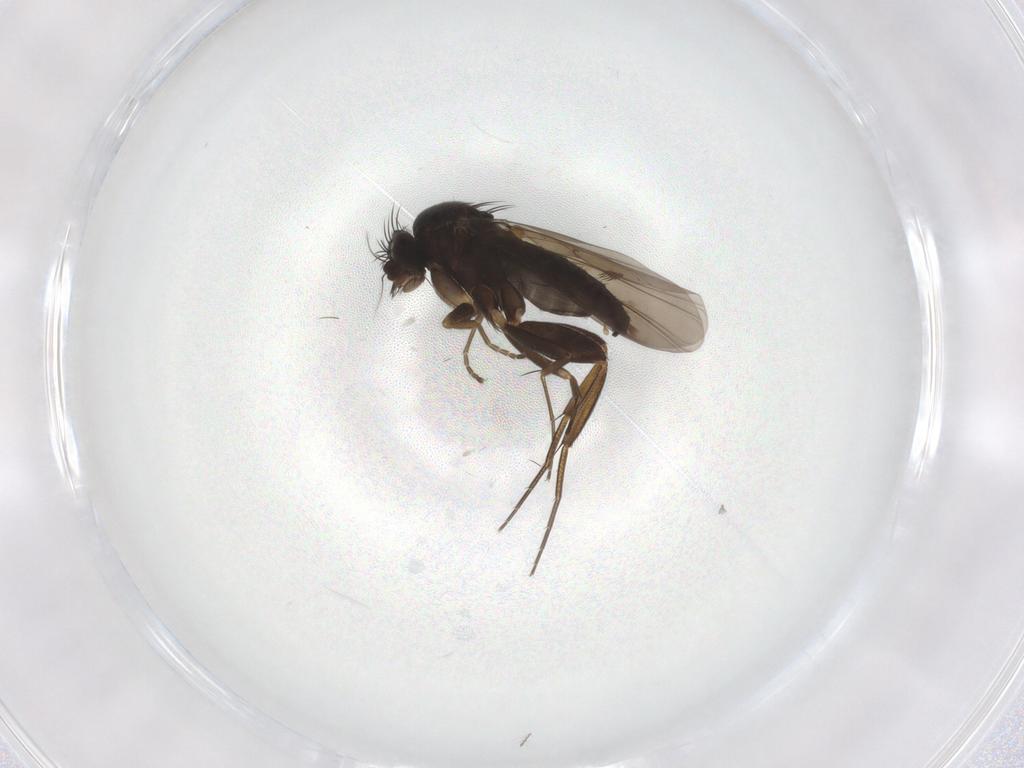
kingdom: Animalia
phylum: Arthropoda
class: Insecta
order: Diptera
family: Phoridae
